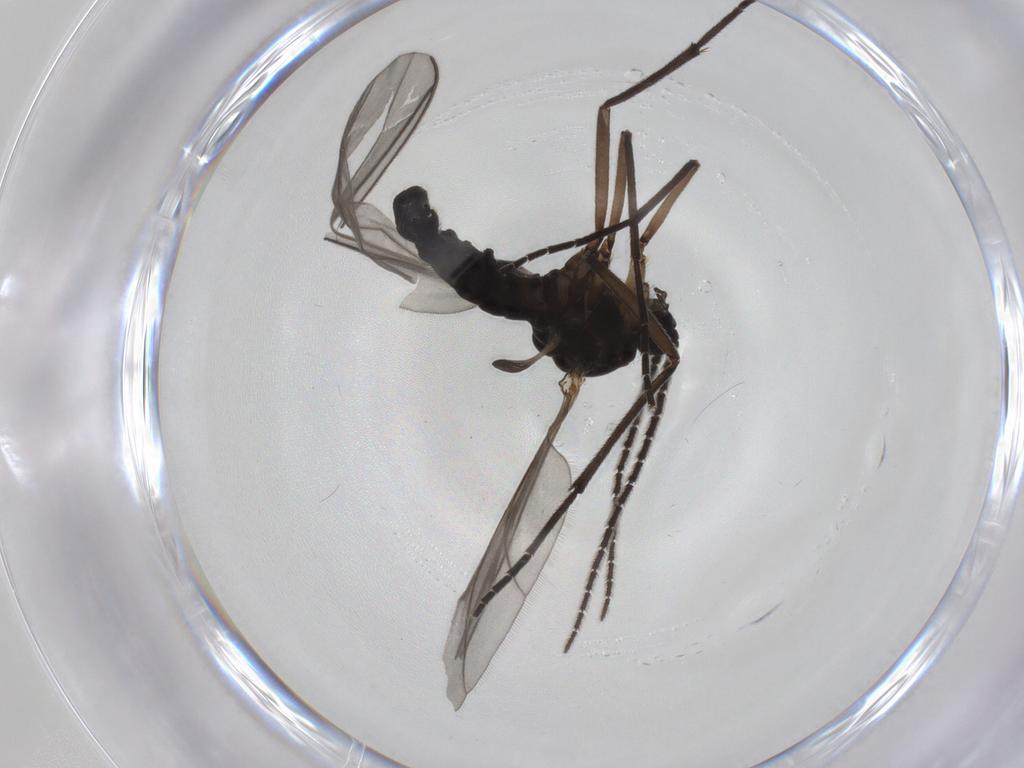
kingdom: Animalia
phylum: Arthropoda
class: Insecta
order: Diptera
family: Sciaridae
